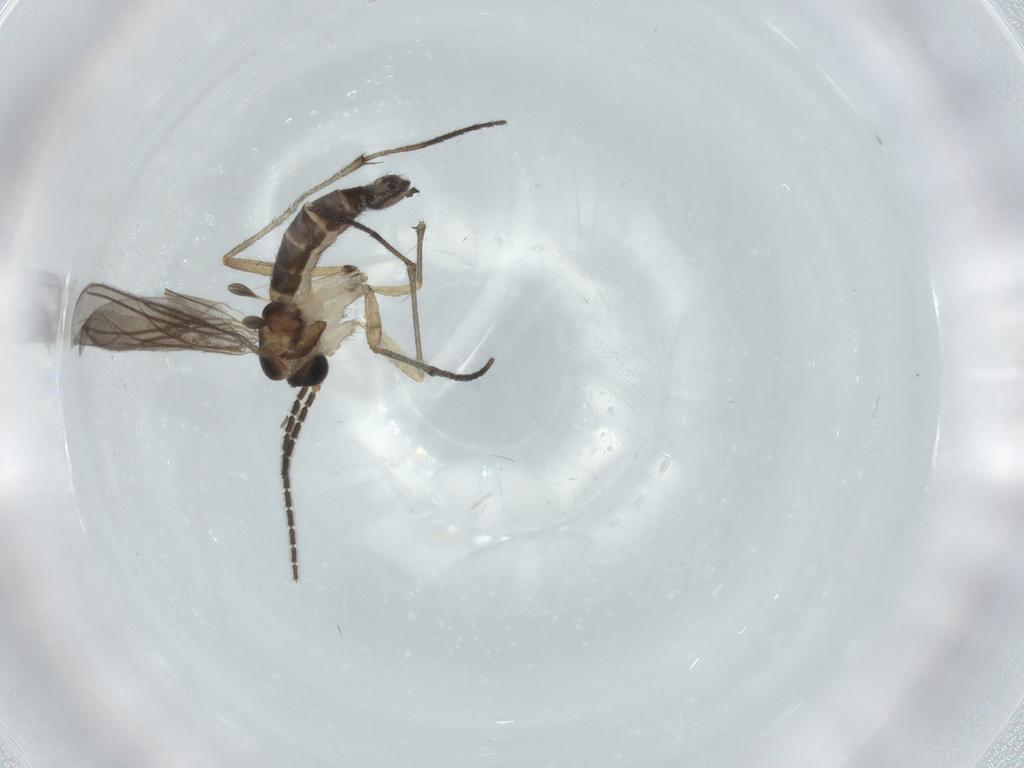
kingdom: Animalia
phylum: Arthropoda
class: Insecta
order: Diptera
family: Sciaridae
